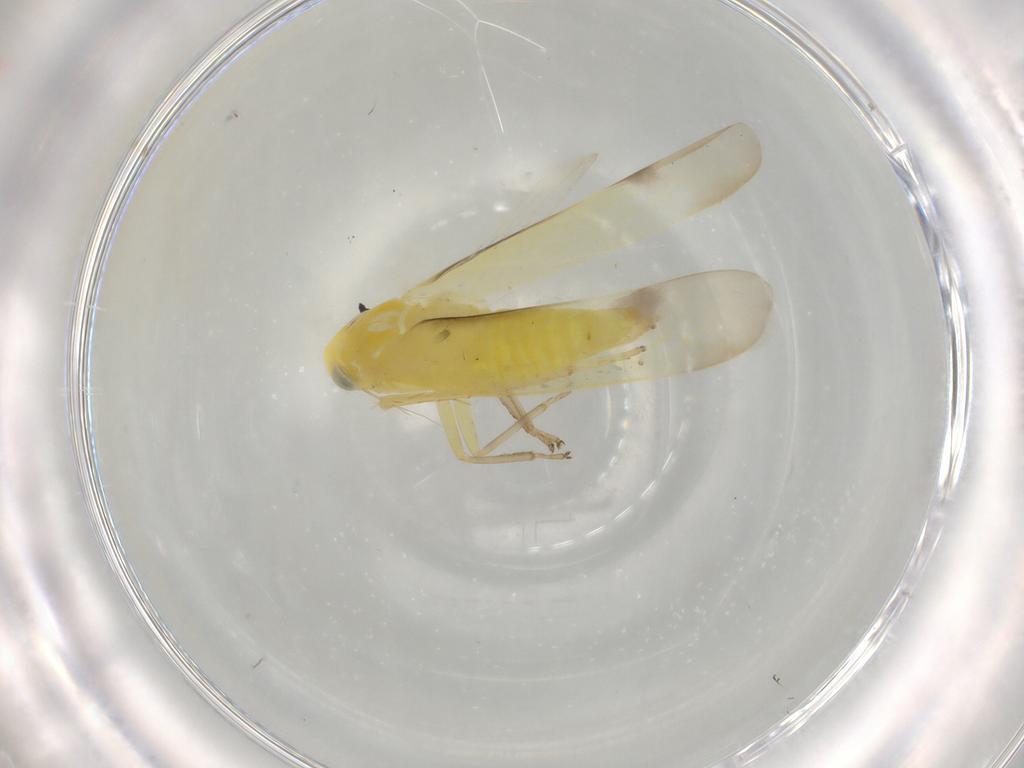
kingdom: Animalia
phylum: Arthropoda
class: Insecta
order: Hemiptera
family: Cicadellidae
